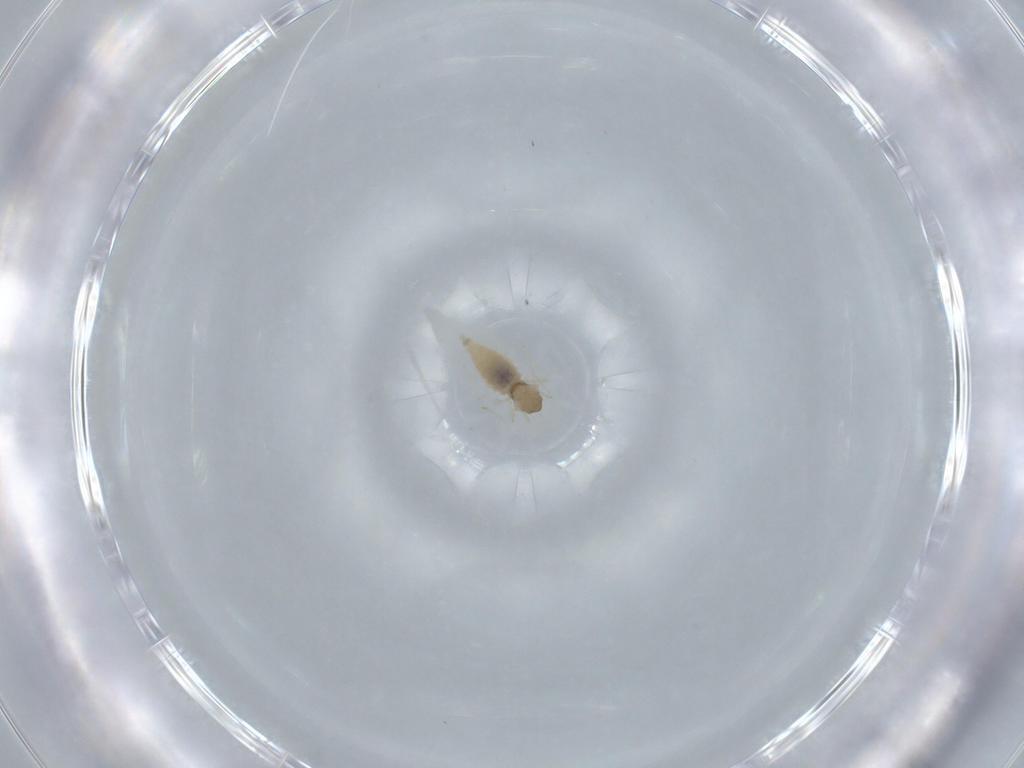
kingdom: Animalia
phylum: Arthropoda
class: Insecta
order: Diptera
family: Cecidomyiidae
